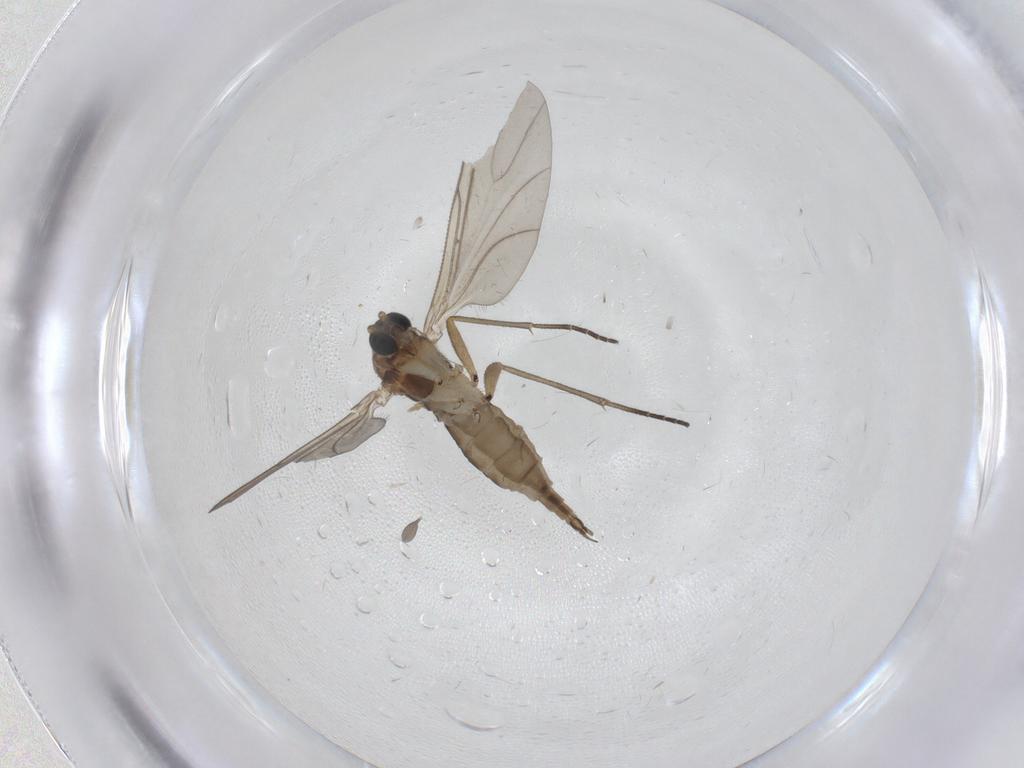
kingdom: Animalia
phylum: Arthropoda
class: Insecta
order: Diptera
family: Sciaridae
